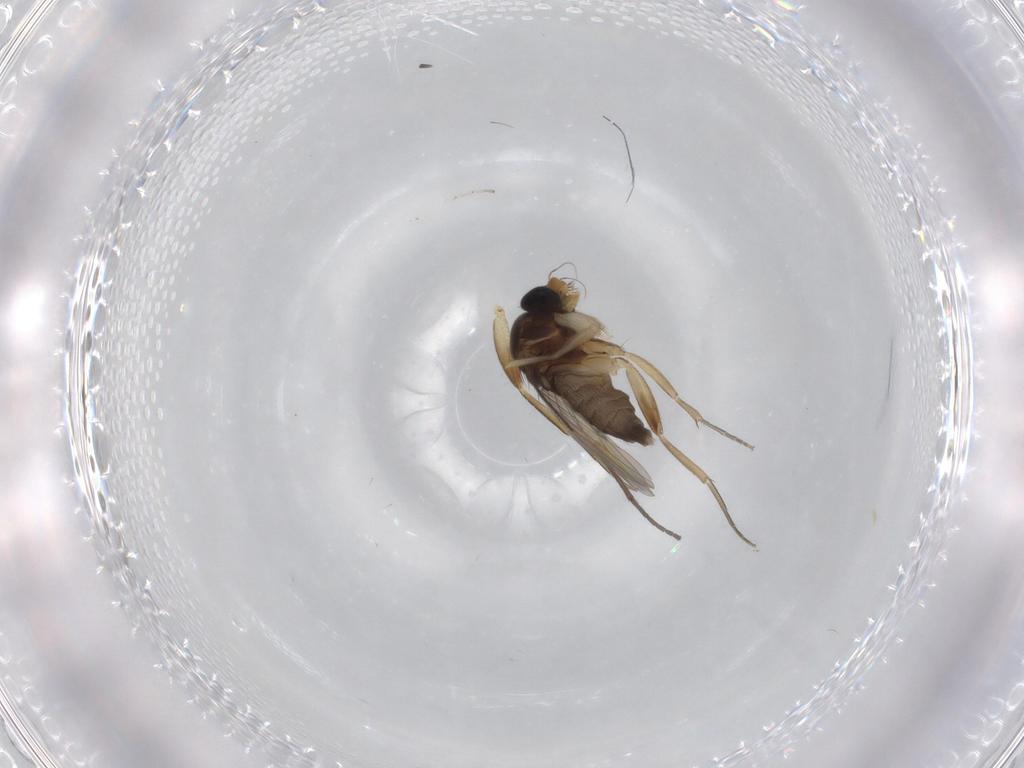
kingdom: Animalia
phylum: Arthropoda
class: Insecta
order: Diptera
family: Phoridae
